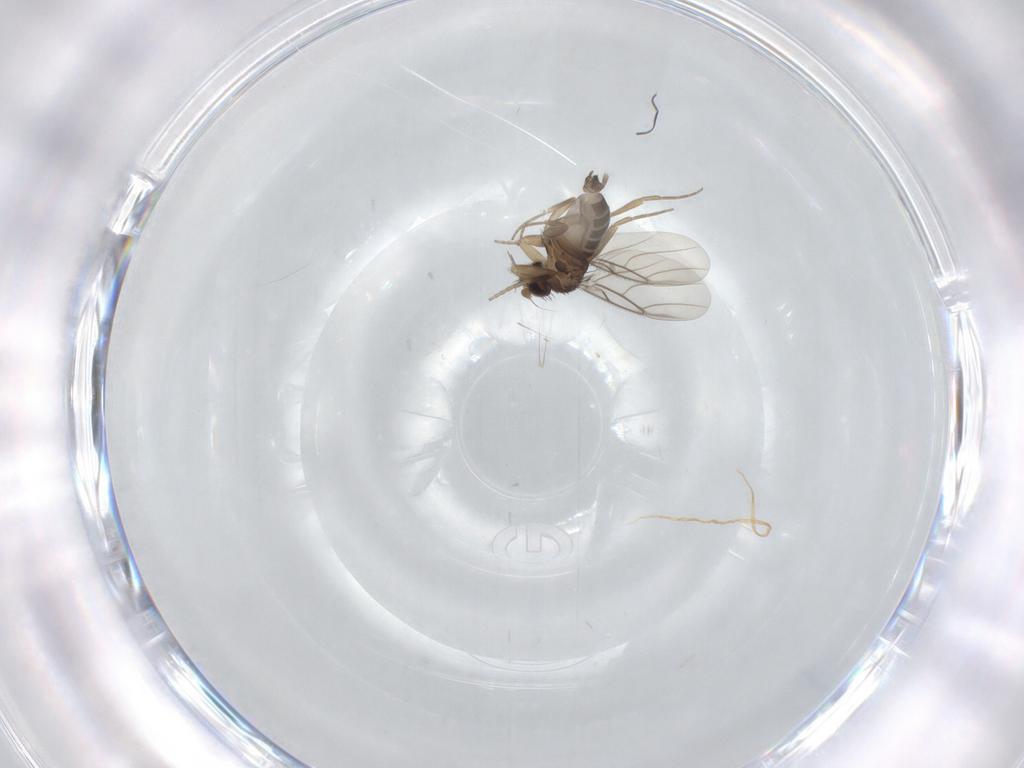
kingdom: Animalia
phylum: Arthropoda
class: Insecta
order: Diptera
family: Phoridae
